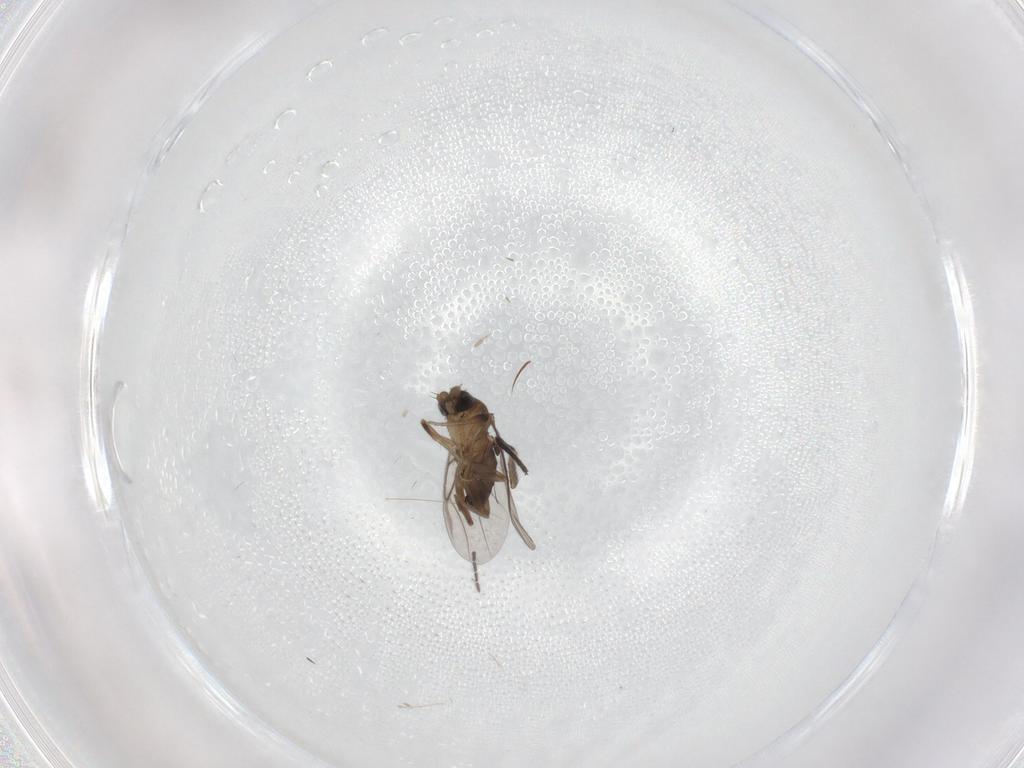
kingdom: Animalia
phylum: Arthropoda
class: Insecta
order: Diptera
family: Phoridae
